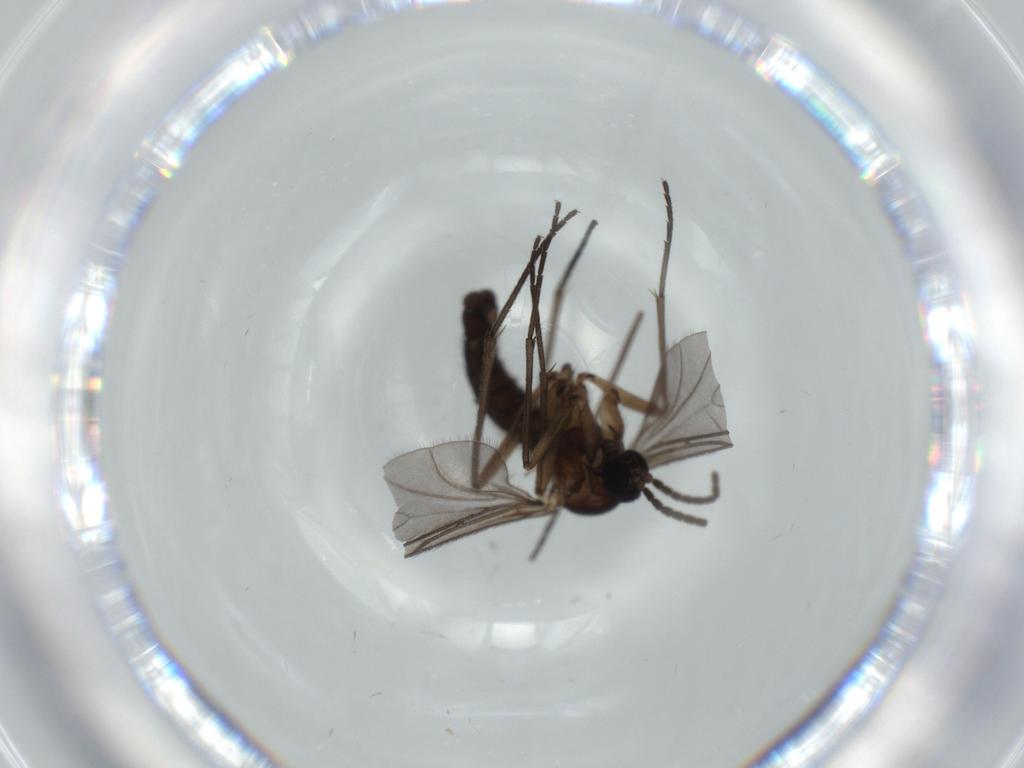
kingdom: Animalia
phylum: Arthropoda
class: Insecta
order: Diptera
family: Sciaridae
